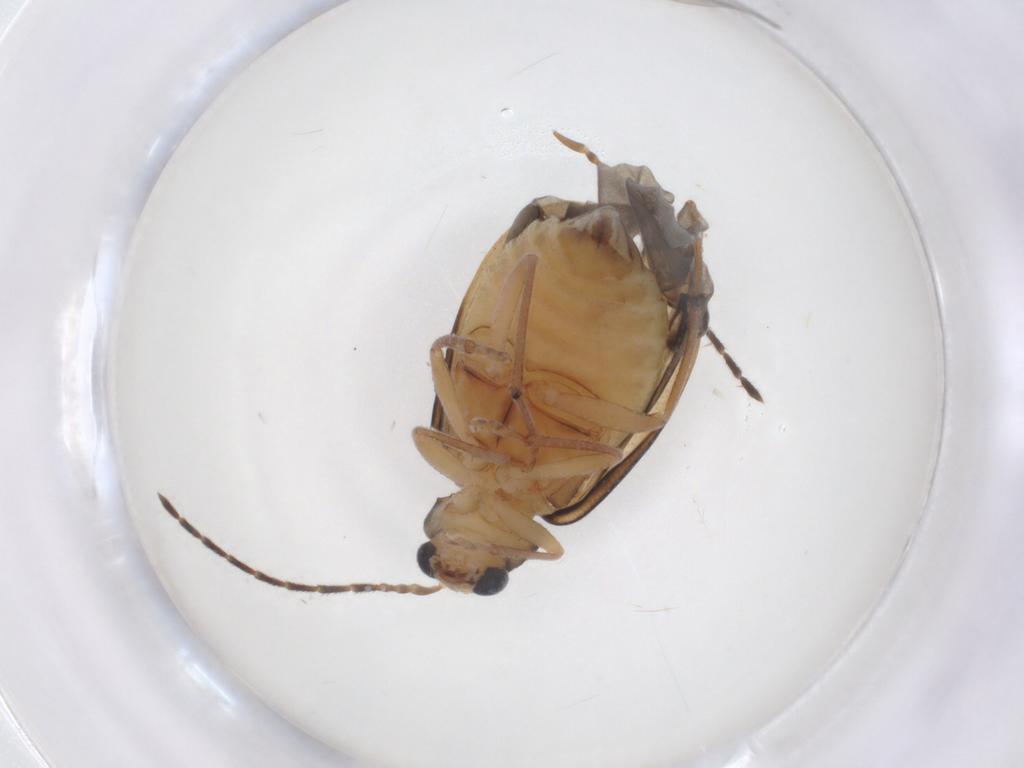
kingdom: Animalia
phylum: Arthropoda
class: Insecta
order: Coleoptera
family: Chrysomelidae
